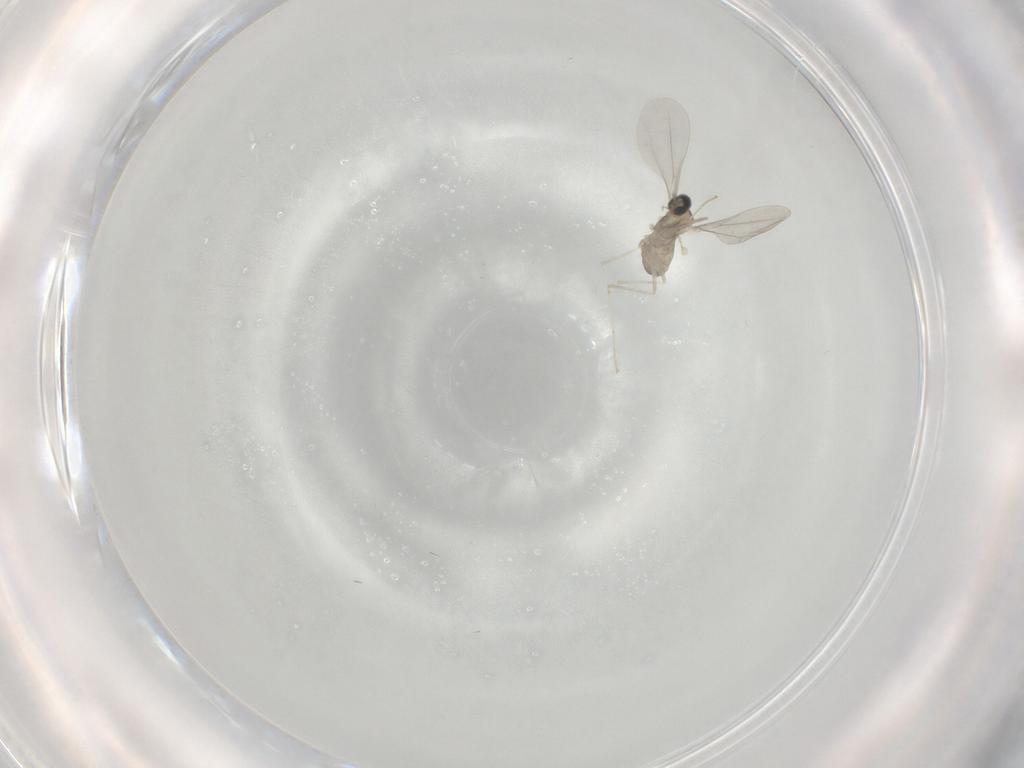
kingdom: Animalia
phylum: Arthropoda
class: Insecta
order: Diptera
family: Cecidomyiidae
